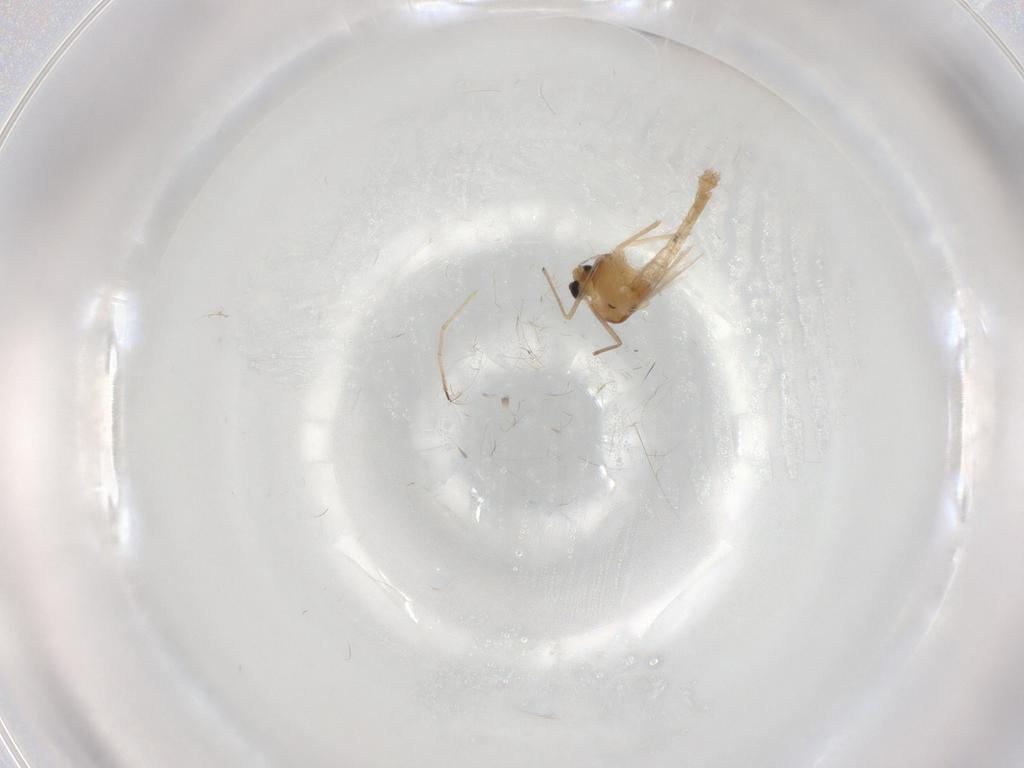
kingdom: Animalia
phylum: Arthropoda
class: Insecta
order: Diptera
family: Chironomidae
